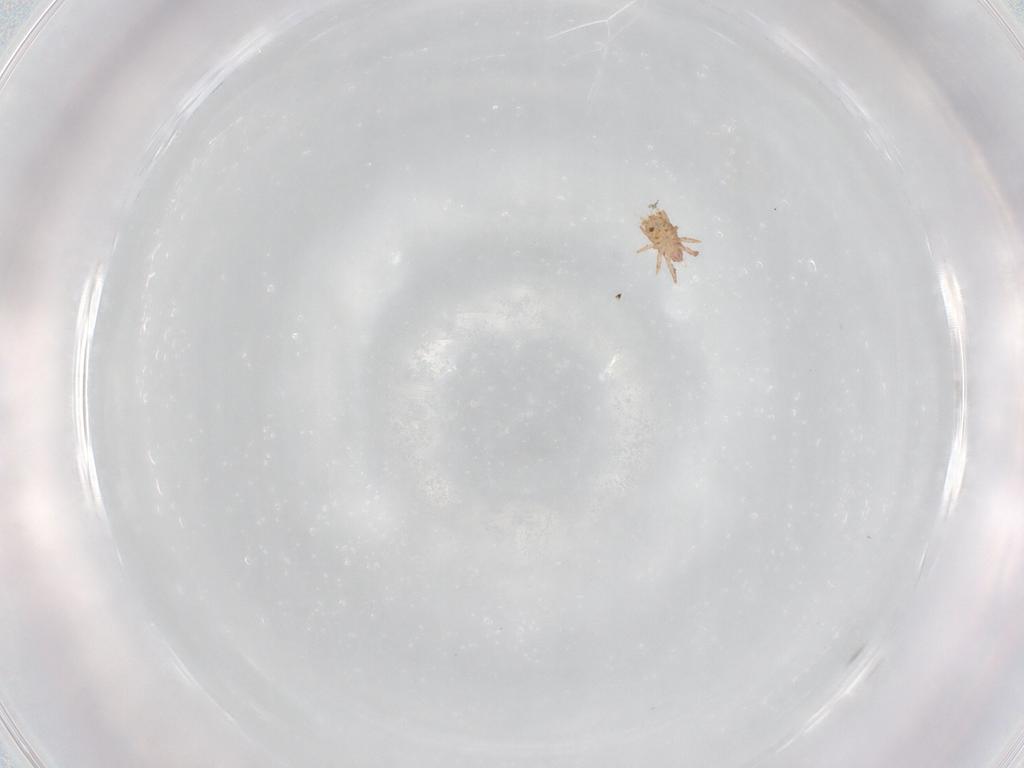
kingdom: Animalia
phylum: Arthropoda
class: Arachnida
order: Sarcoptiformes
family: Crotoniidae
